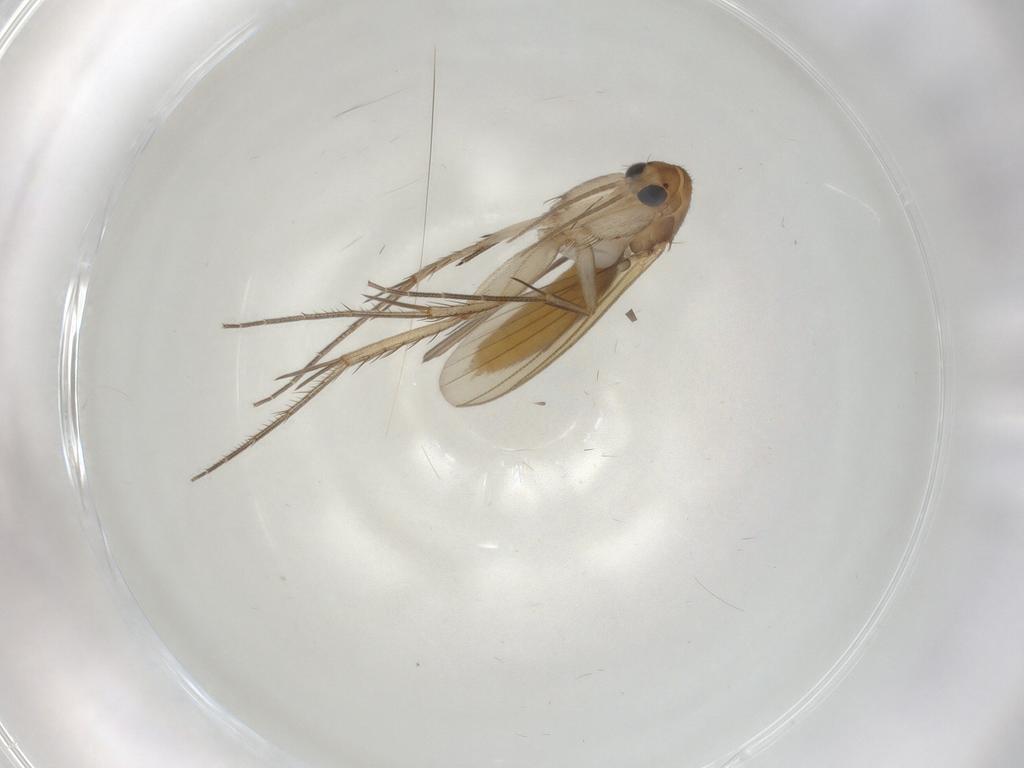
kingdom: Animalia
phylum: Arthropoda
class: Insecta
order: Diptera
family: Mycetophilidae
